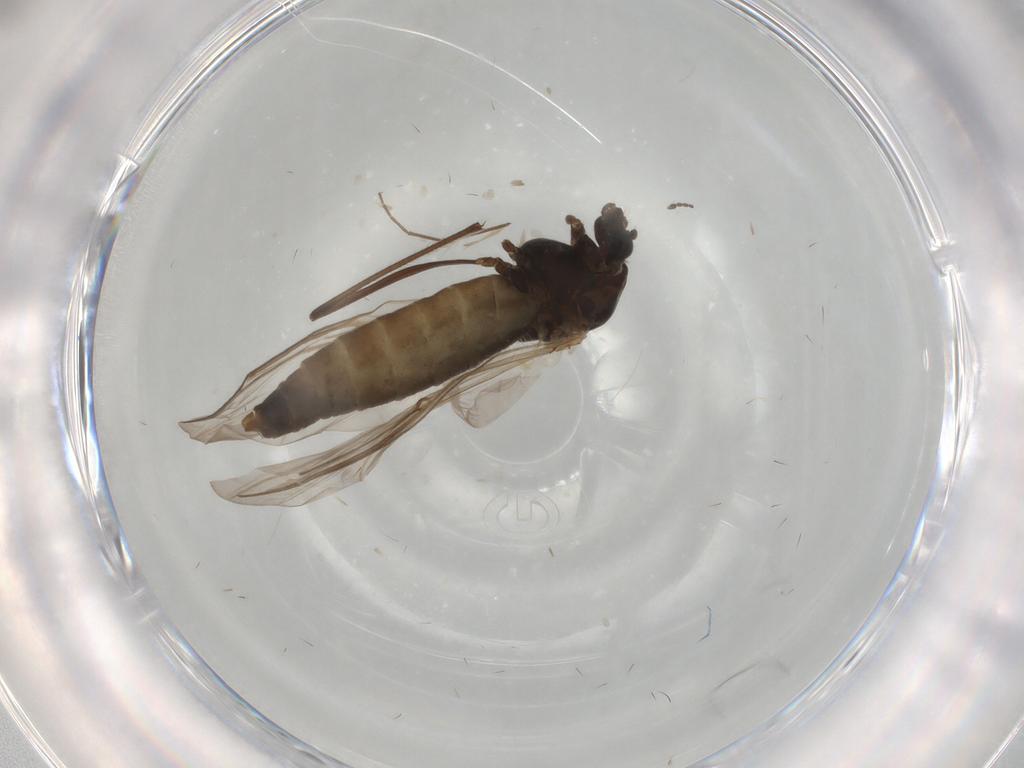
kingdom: Animalia
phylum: Arthropoda
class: Insecta
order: Diptera
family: Chironomidae
